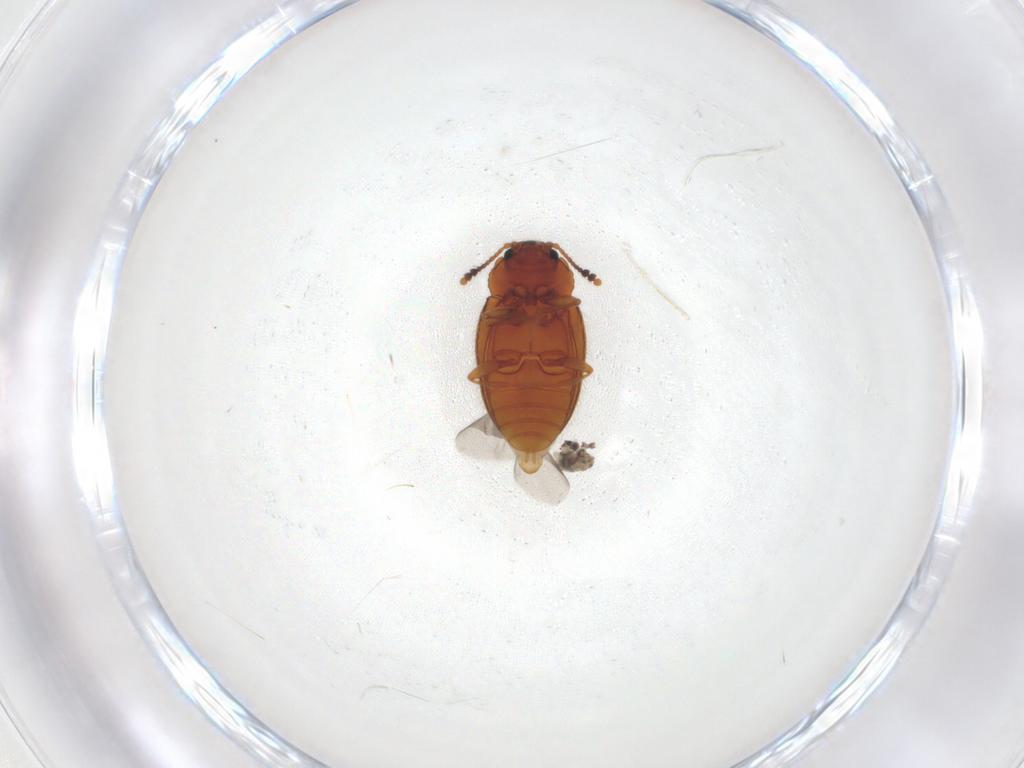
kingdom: Animalia
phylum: Arthropoda
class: Insecta
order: Coleoptera
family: Erotylidae
